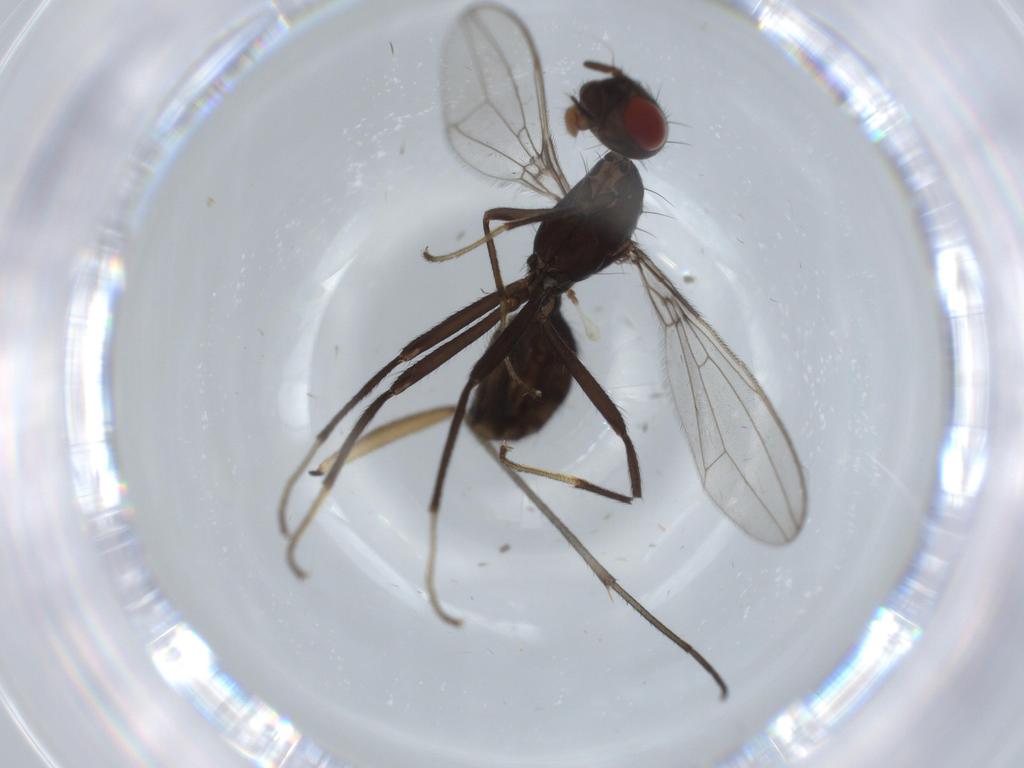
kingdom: Animalia
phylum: Arthropoda
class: Insecta
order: Diptera
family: Richardiidae
